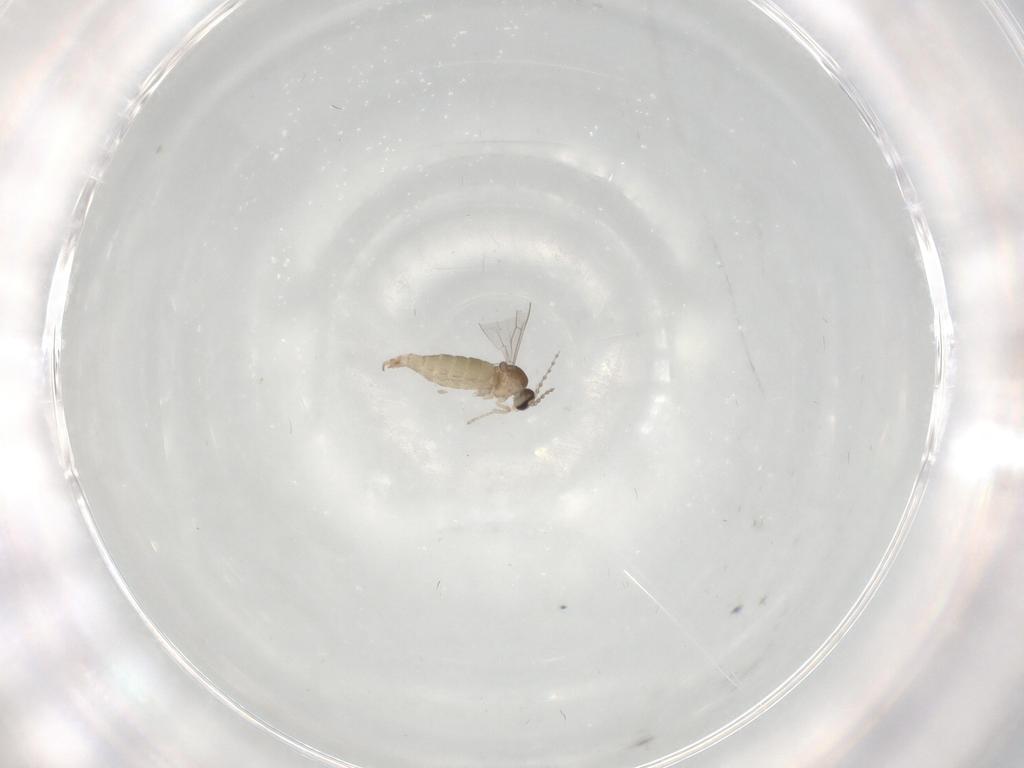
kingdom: Animalia
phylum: Arthropoda
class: Insecta
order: Diptera
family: Cecidomyiidae
